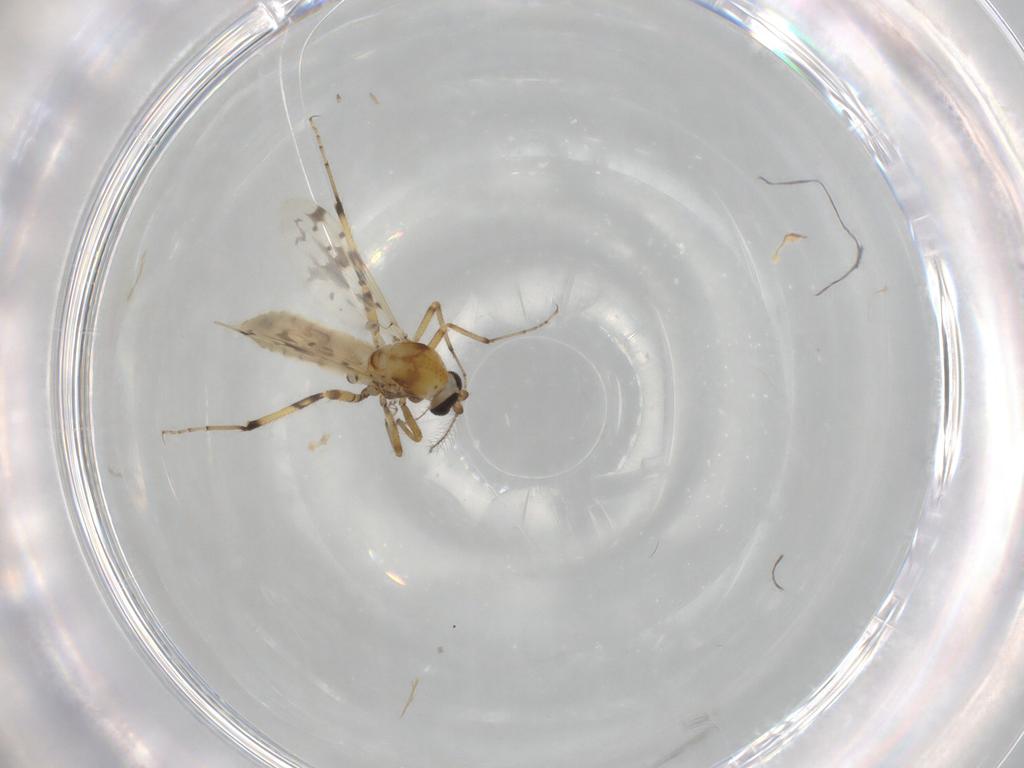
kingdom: Animalia
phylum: Arthropoda
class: Insecta
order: Diptera
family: Ceratopogonidae
